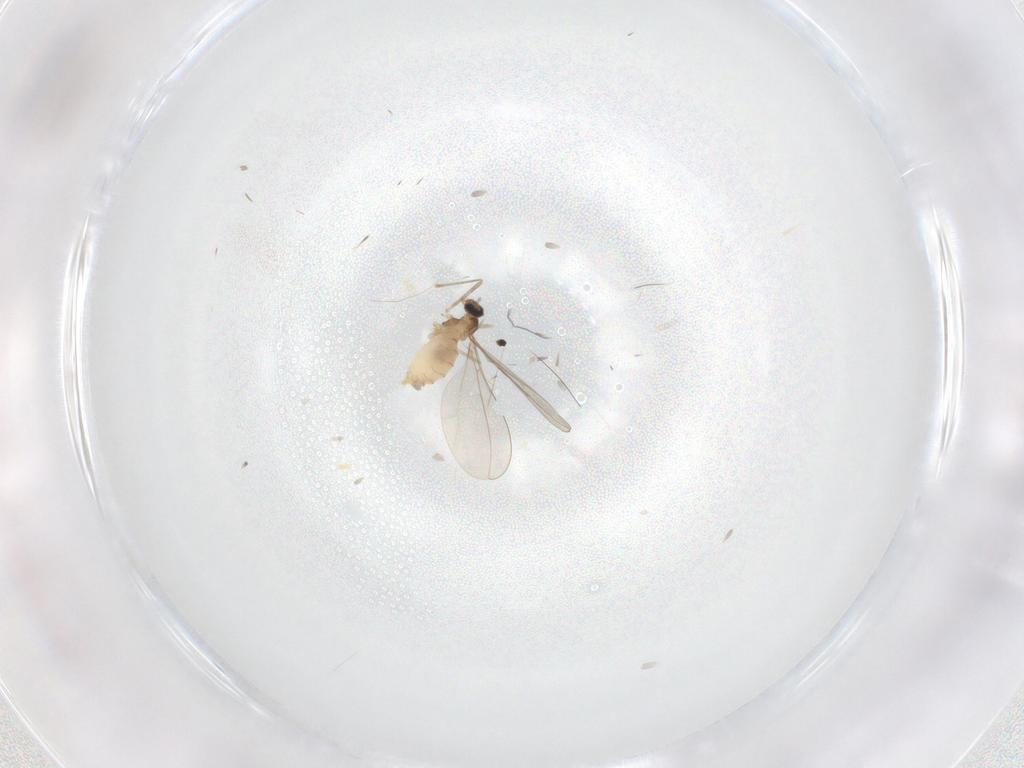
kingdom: Animalia
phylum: Arthropoda
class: Insecta
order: Diptera
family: Cecidomyiidae
